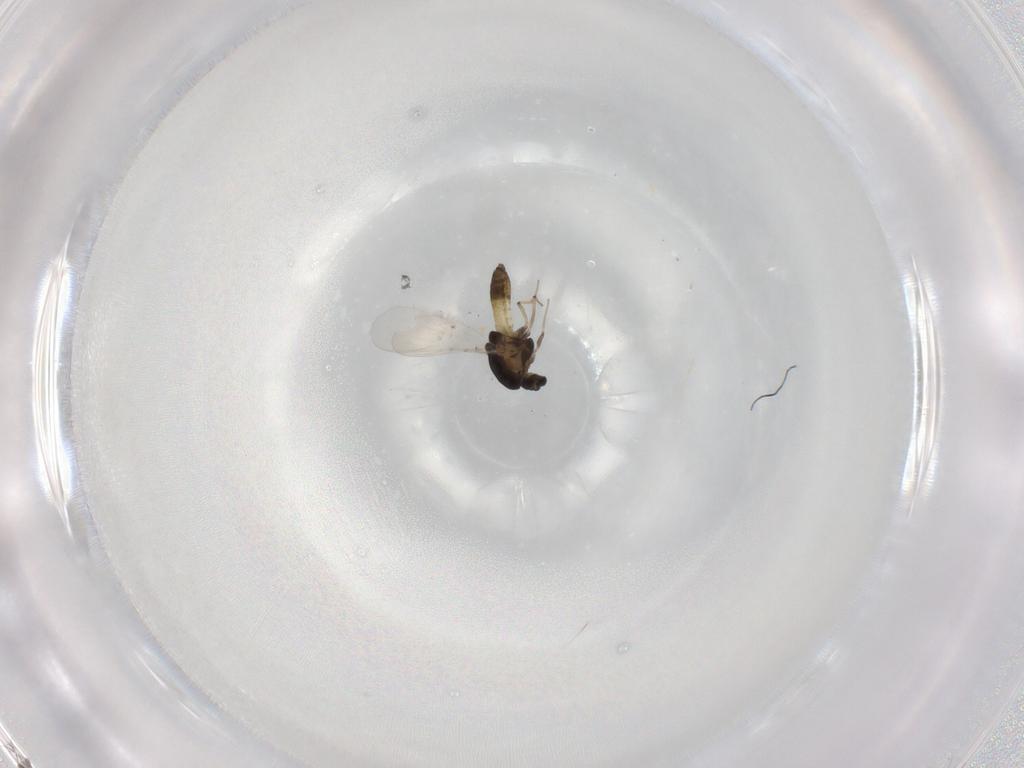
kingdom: Animalia
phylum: Arthropoda
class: Insecta
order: Diptera
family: Chironomidae
